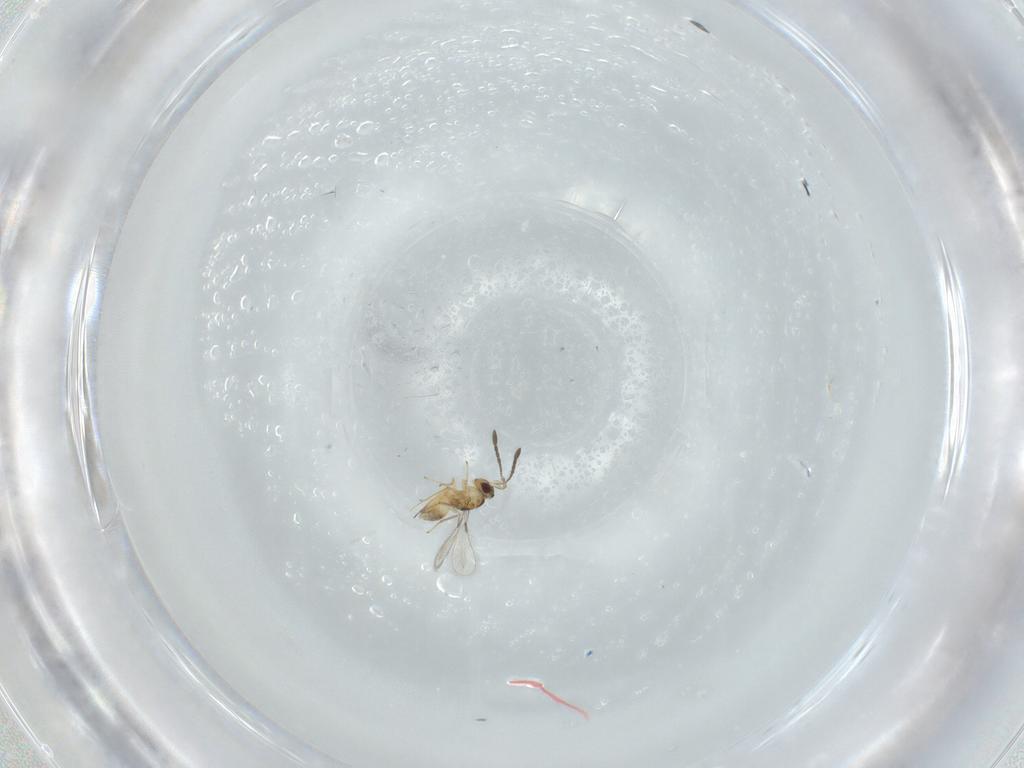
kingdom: Animalia
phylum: Arthropoda
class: Insecta
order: Hymenoptera
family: Mymaridae
